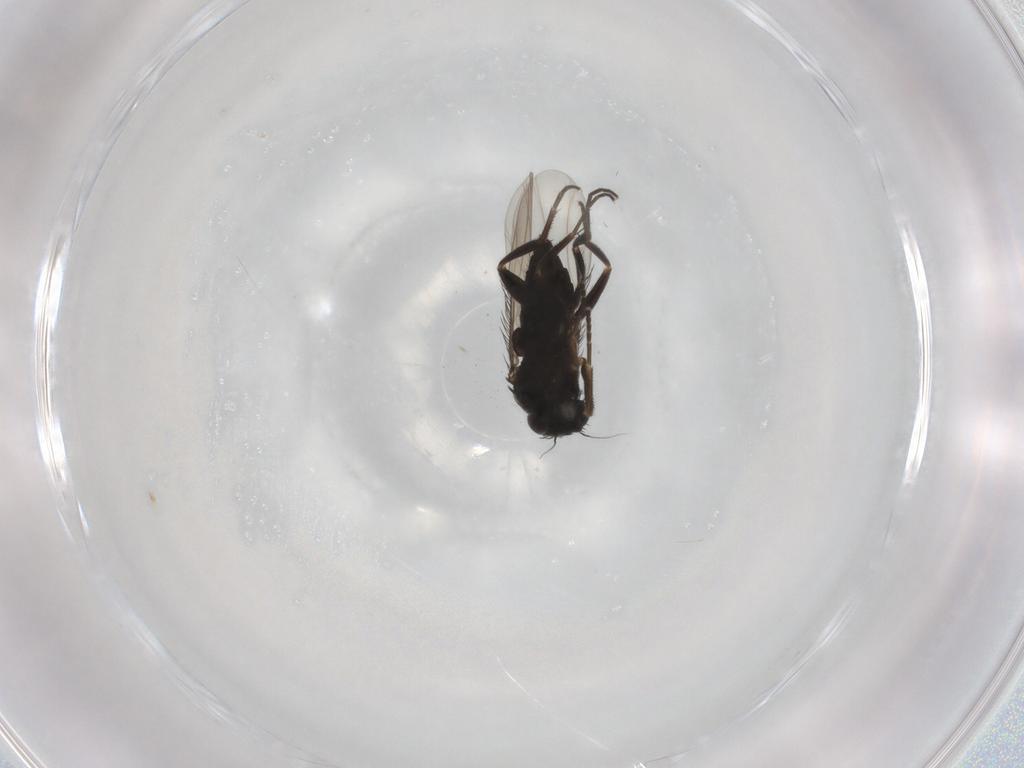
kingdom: Animalia
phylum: Arthropoda
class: Insecta
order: Diptera
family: Phoridae
